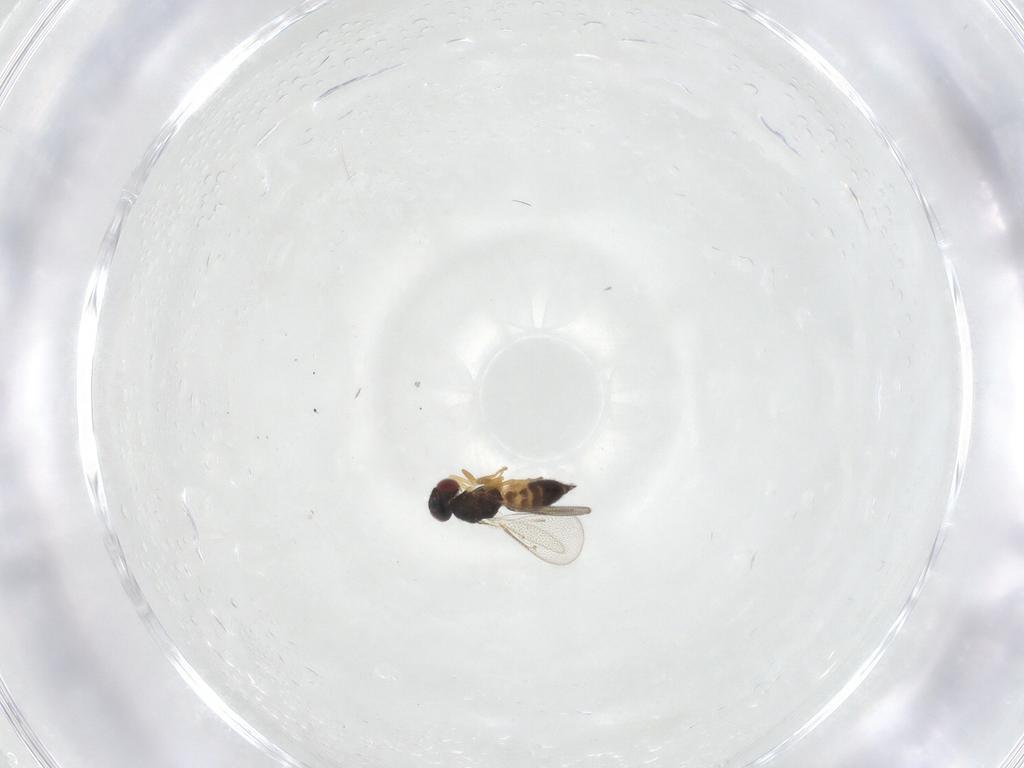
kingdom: Animalia
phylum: Arthropoda
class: Insecta
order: Hymenoptera
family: Eulophidae
